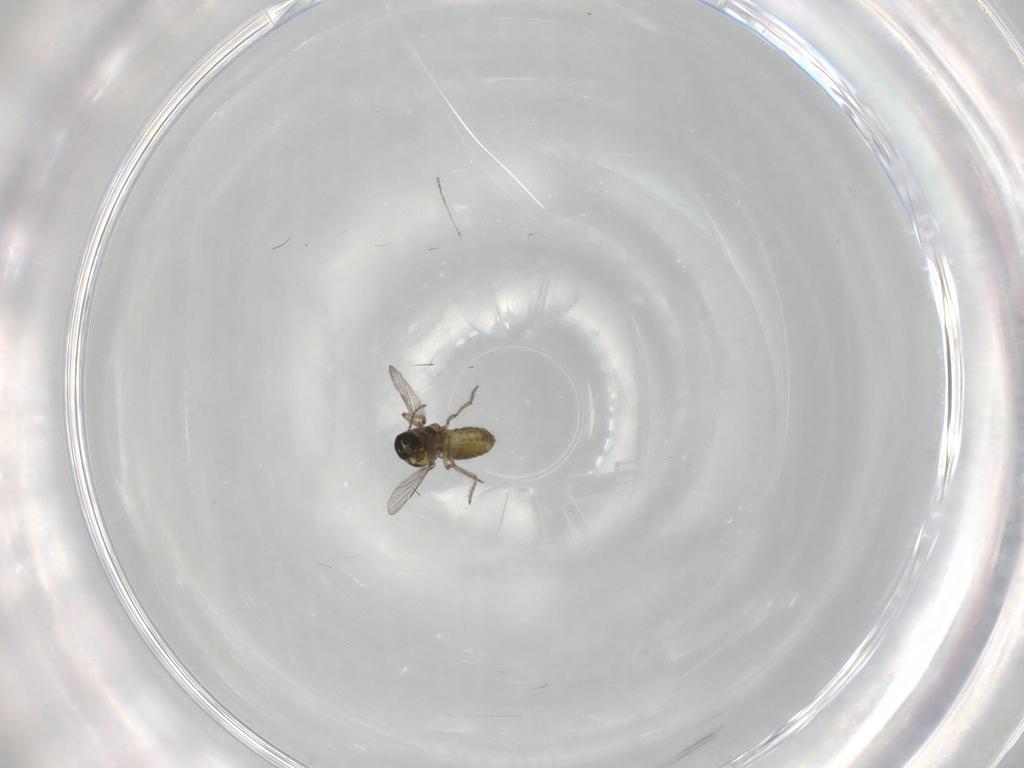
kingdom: Animalia
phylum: Arthropoda
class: Insecta
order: Diptera
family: Ceratopogonidae
